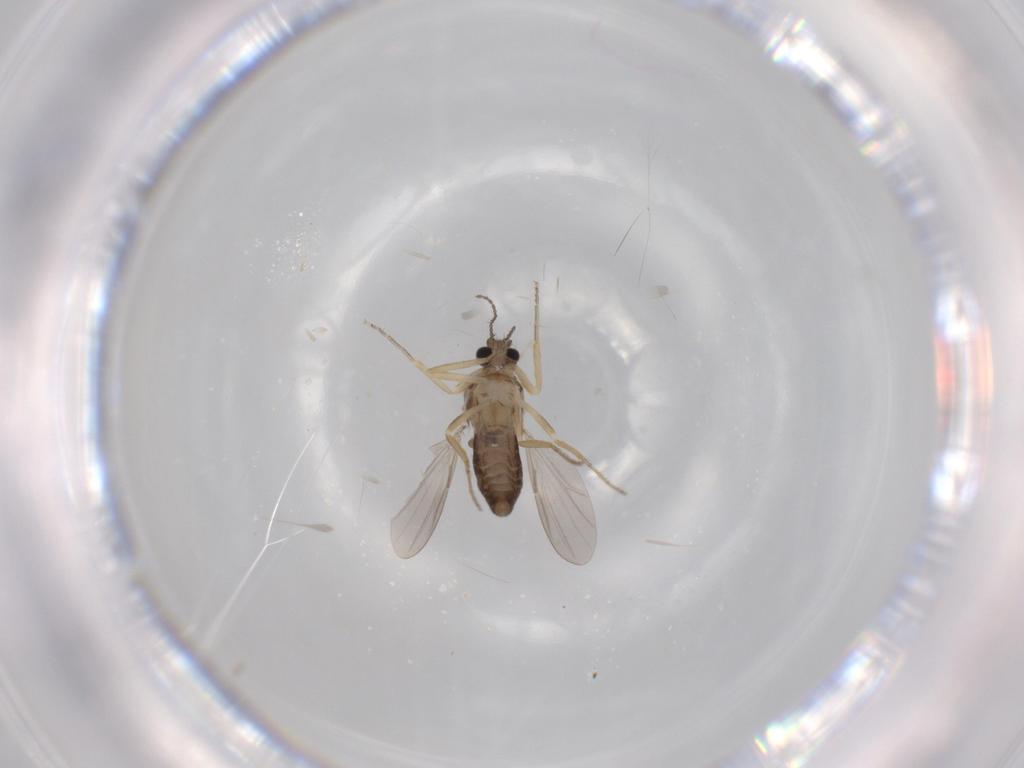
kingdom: Animalia
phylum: Arthropoda
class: Insecta
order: Diptera
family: Ceratopogonidae
